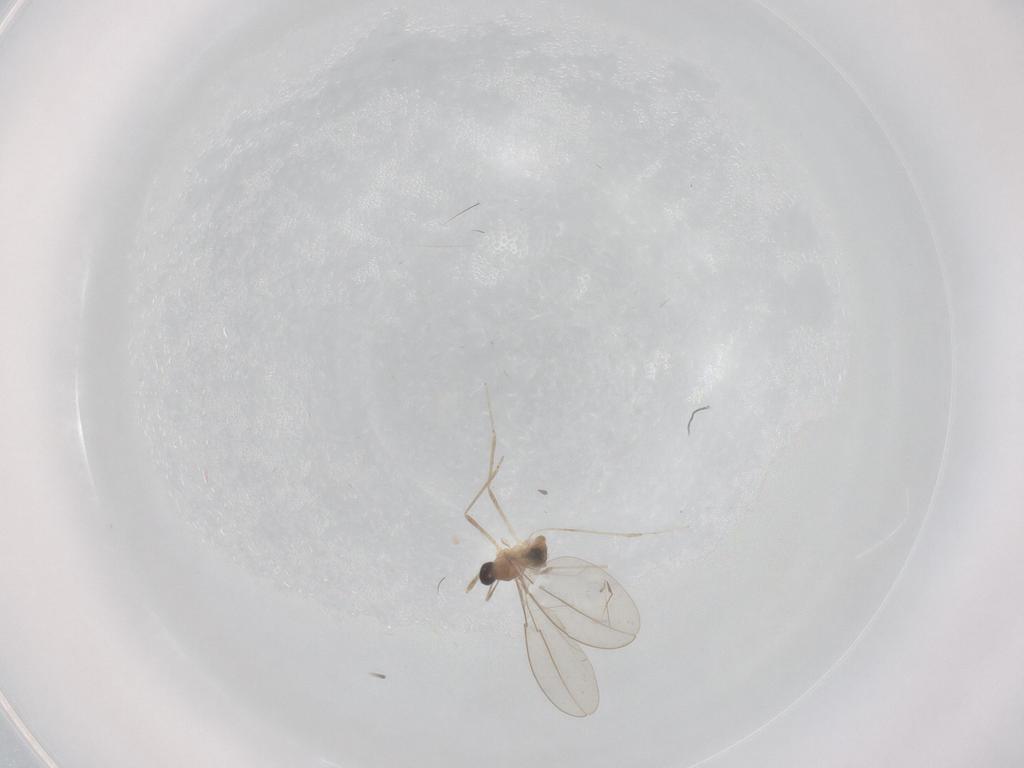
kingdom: Animalia
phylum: Arthropoda
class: Insecta
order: Diptera
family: Cecidomyiidae
